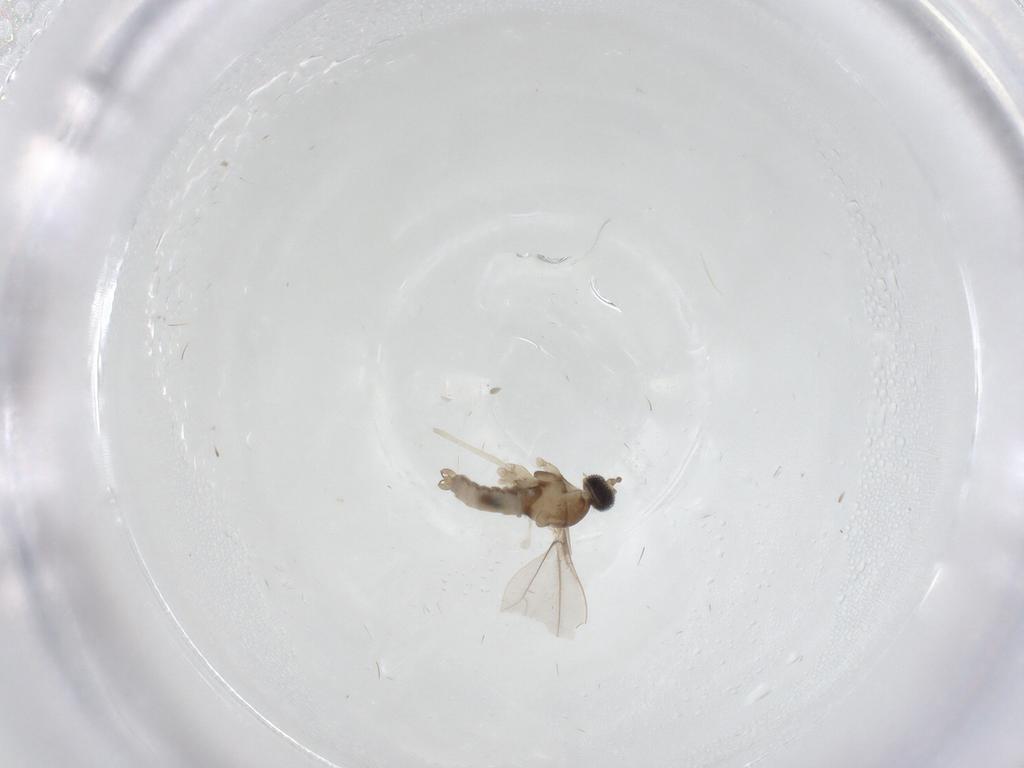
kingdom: Animalia
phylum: Arthropoda
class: Insecta
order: Diptera
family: Cecidomyiidae
